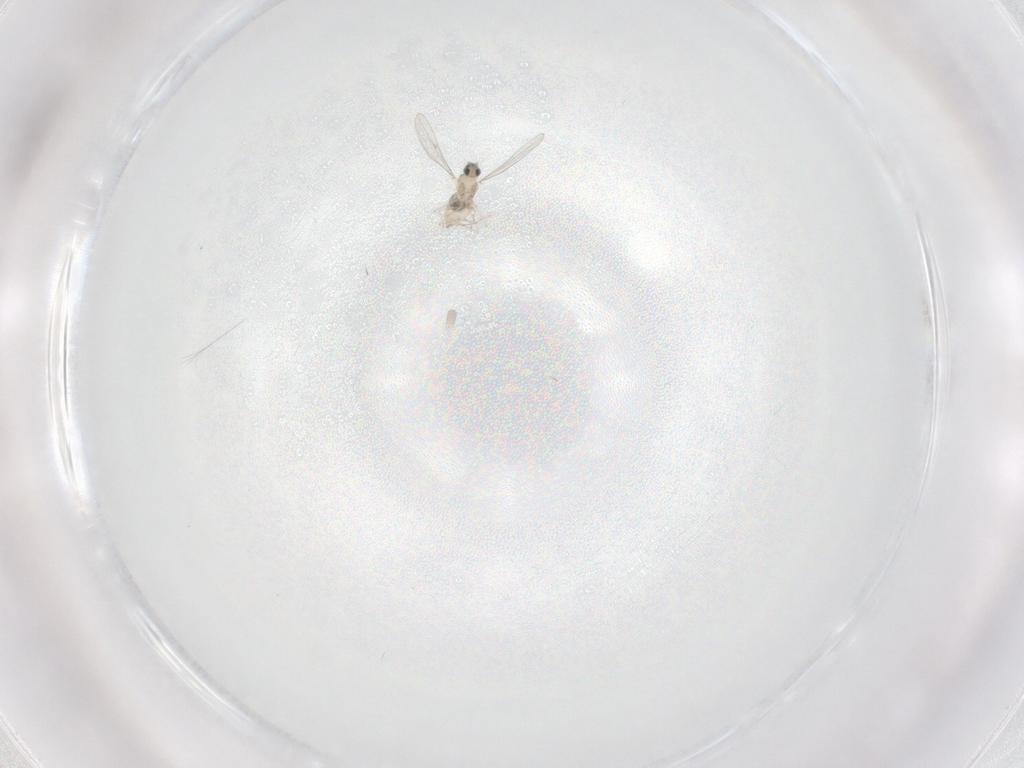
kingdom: Animalia
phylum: Arthropoda
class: Insecta
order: Diptera
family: Cecidomyiidae
